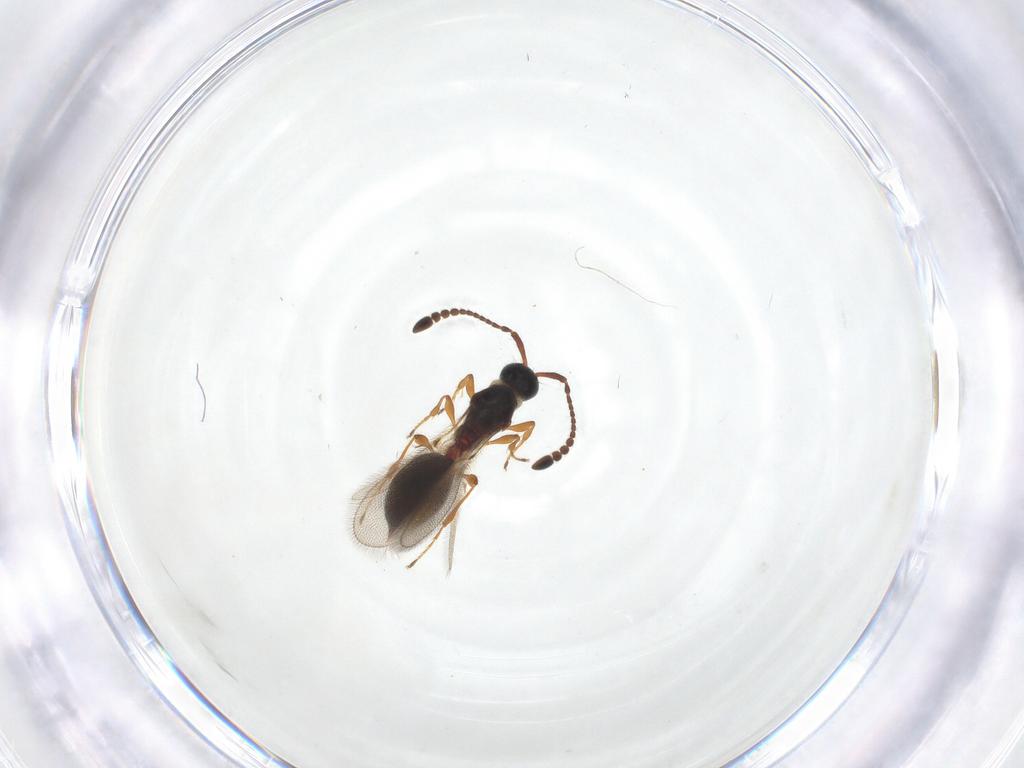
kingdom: Animalia
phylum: Arthropoda
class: Insecta
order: Hymenoptera
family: Diapriidae
